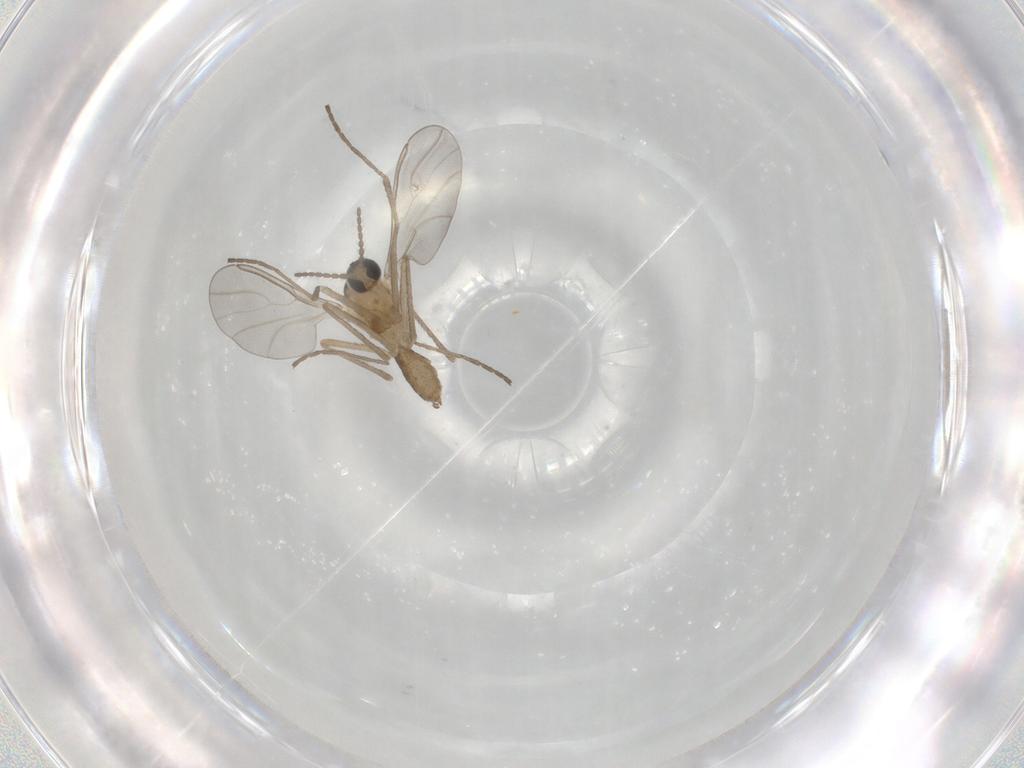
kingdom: Animalia
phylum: Arthropoda
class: Insecta
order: Diptera
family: Cecidomyiidae
